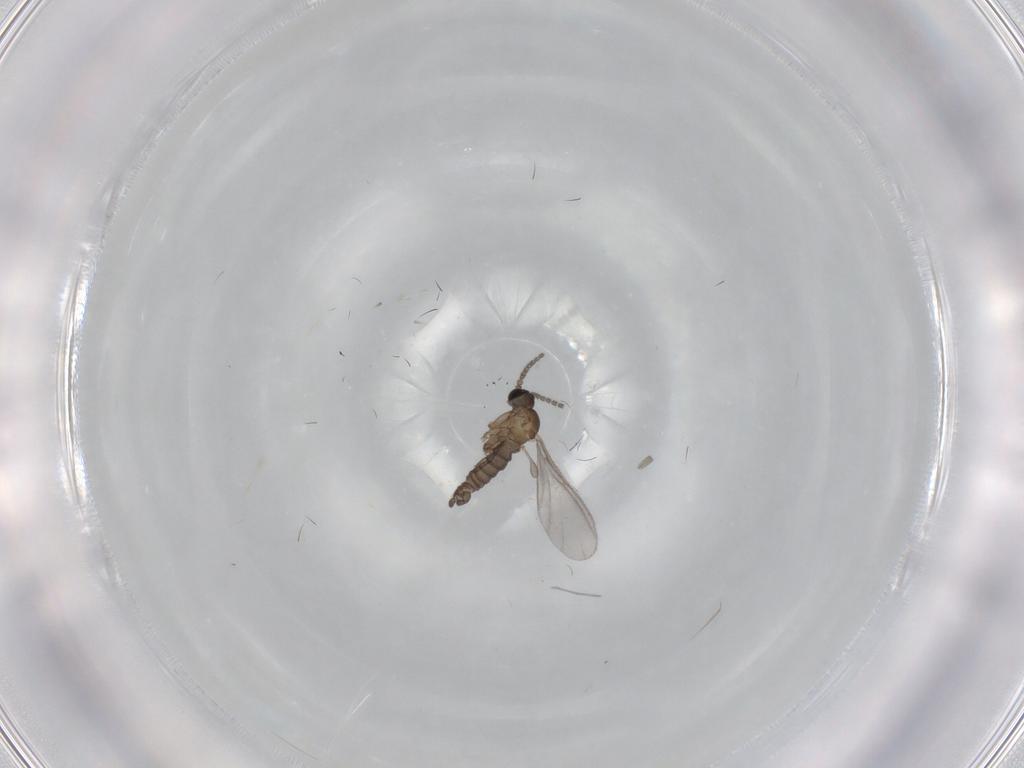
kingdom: Animalia
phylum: Arthropoda
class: Insecta
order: Diptera
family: Sciaridae
